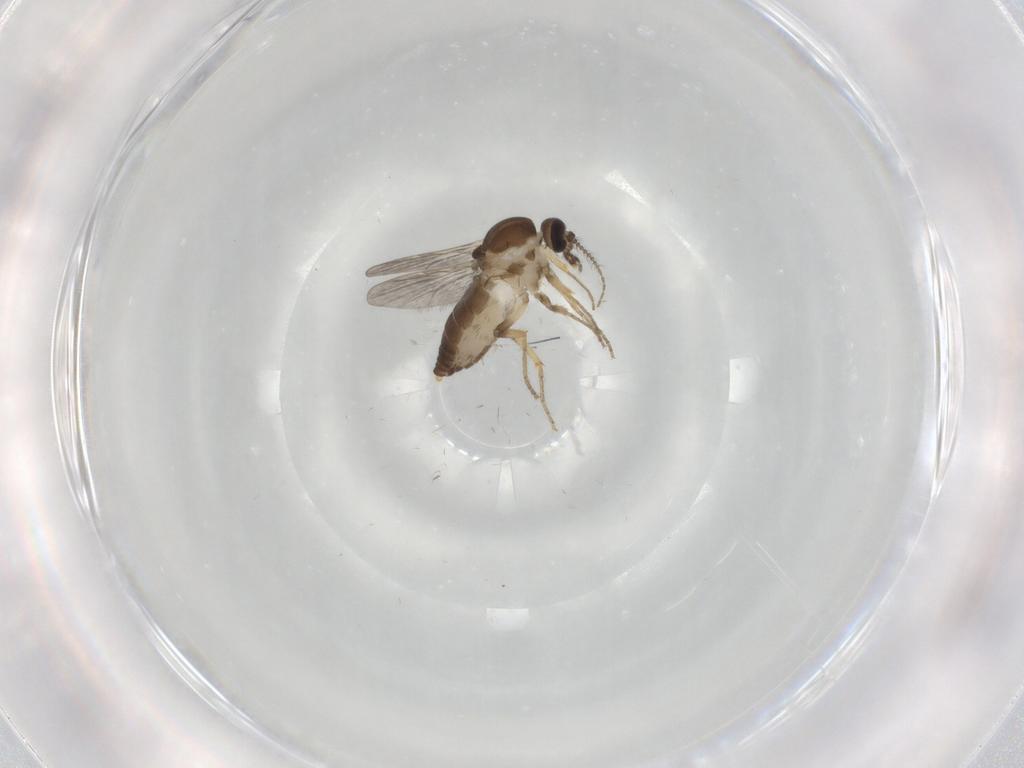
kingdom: Animalia
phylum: Arthropoda
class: Insecta
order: Diptera
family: Ceratopogonidae
